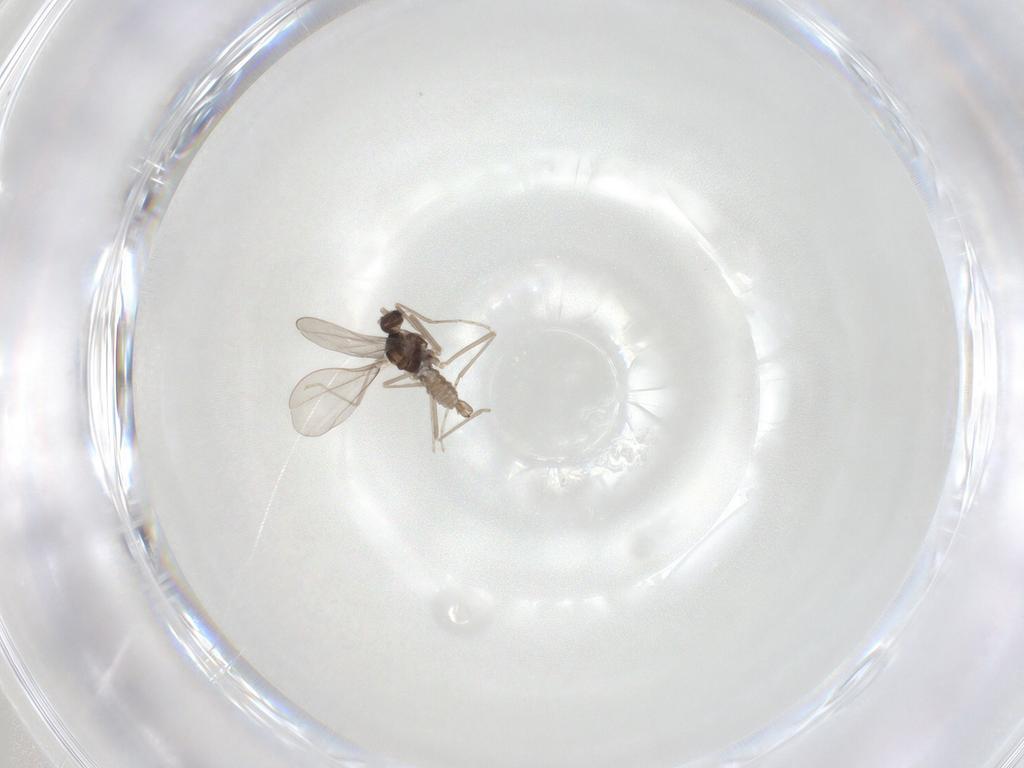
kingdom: Animalia
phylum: Arthropoda
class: Insecta
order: Diptera
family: Cecidomyiidae
